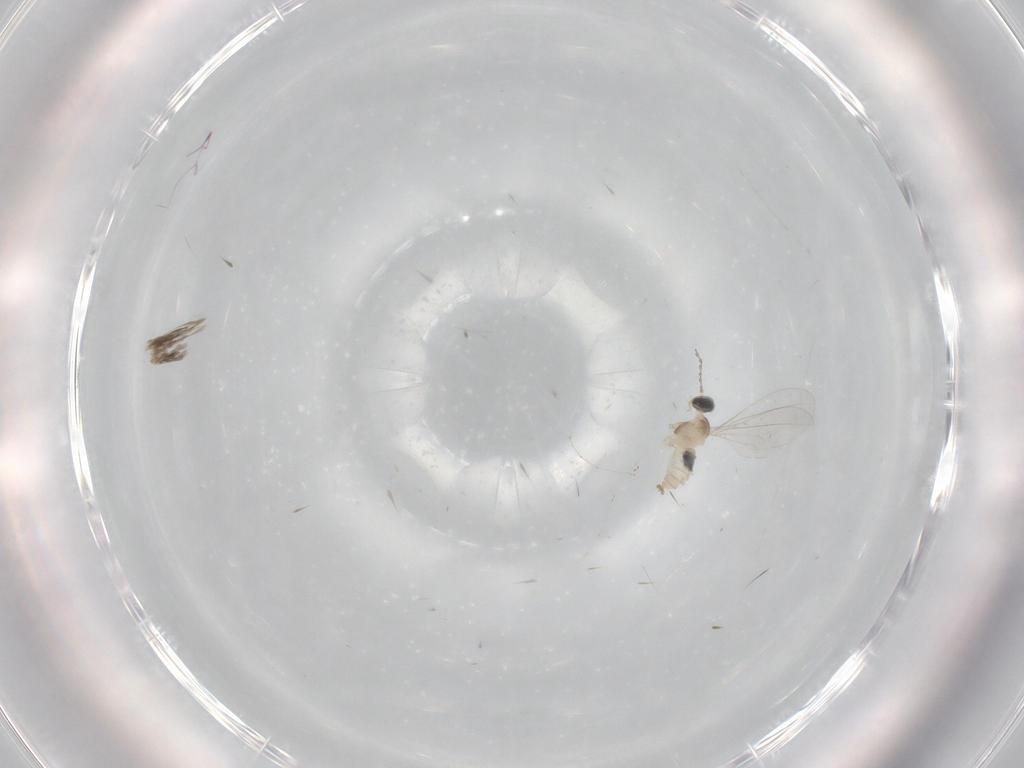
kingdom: Animalia
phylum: Arthropoda
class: Insecta
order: Diptera
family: Cecidomyiidae
